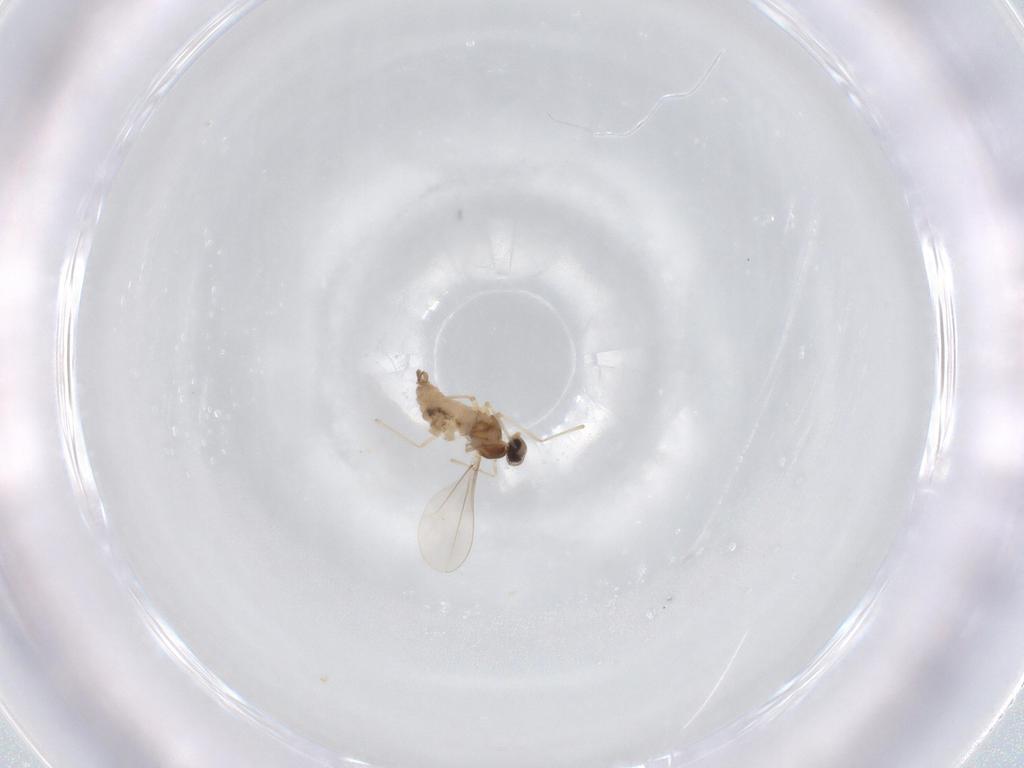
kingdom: Animalia
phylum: Arthropoda
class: Insecta
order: Diptera
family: Cecidomyiidae
